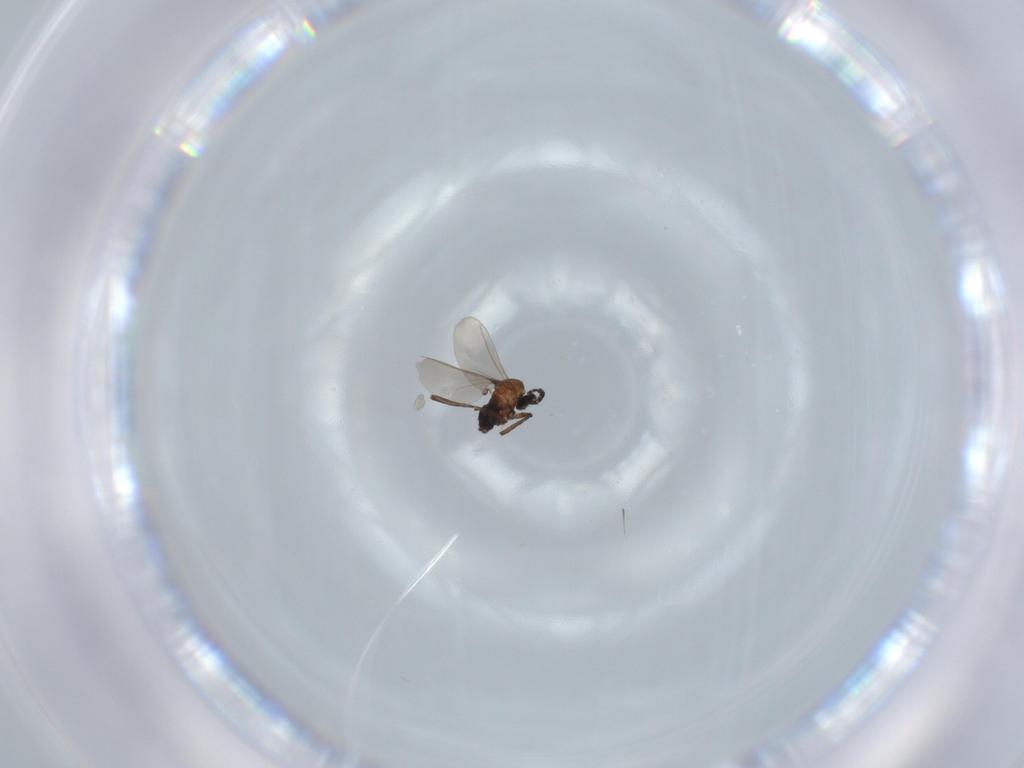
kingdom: Animalia
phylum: Arthropoda
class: Insecta
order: Diptera
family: Cecidomyiidae
